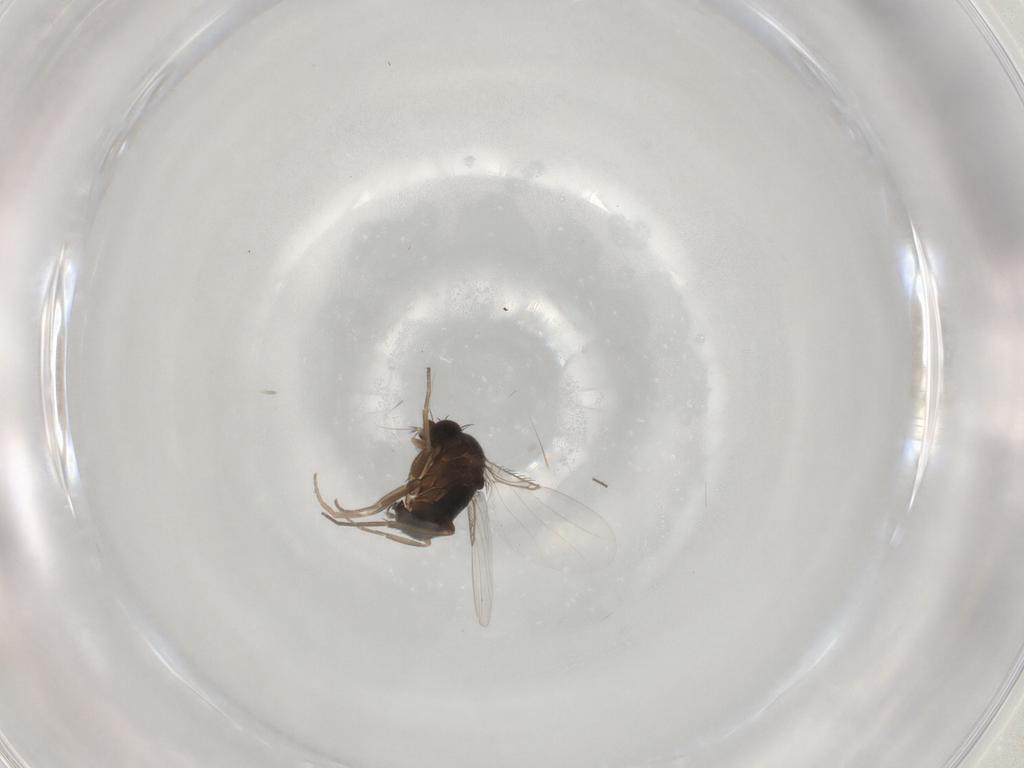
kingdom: Animalia
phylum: Arthropoda
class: Insecta
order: Diptera
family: Phoridae
